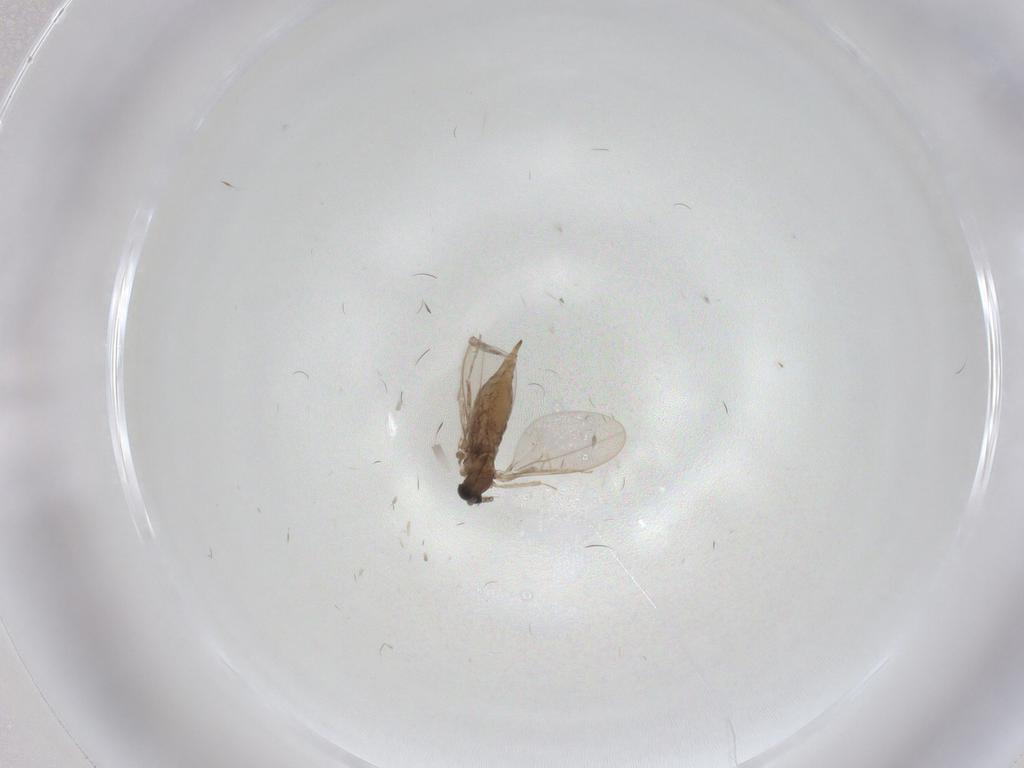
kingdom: Animalia
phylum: Arthropoda
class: Insecta
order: Diptera
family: Cecidomyiidae
